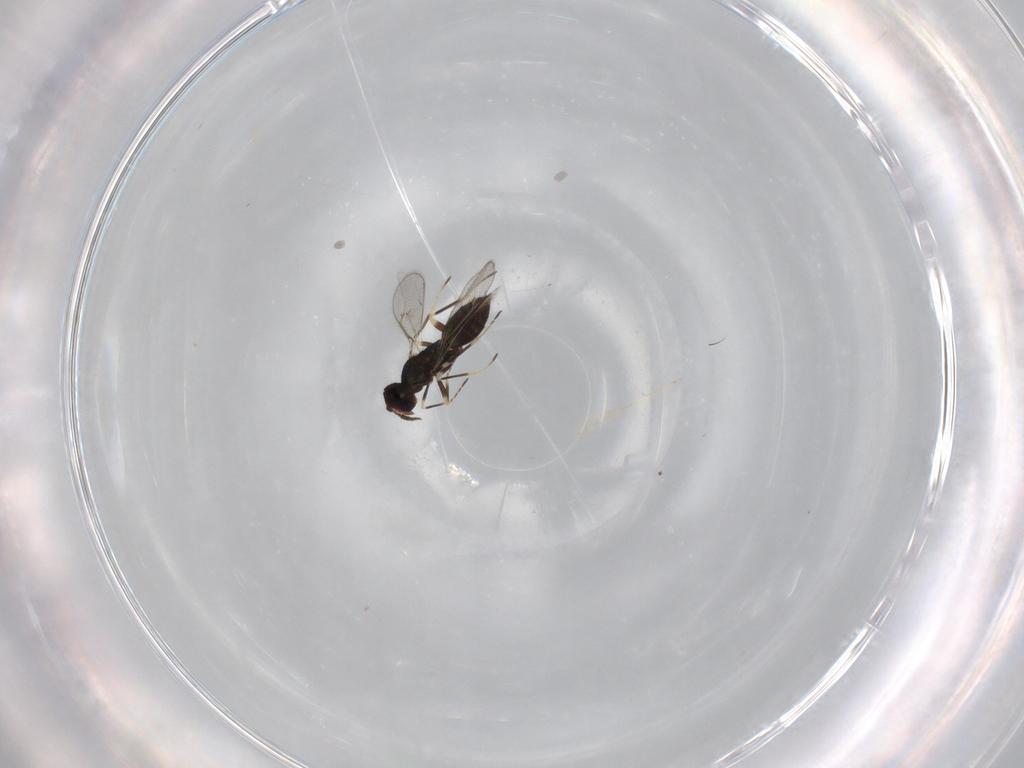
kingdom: Animalia
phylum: Arthropoda
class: Insecta
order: Hymenoptera
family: Eulophidae
